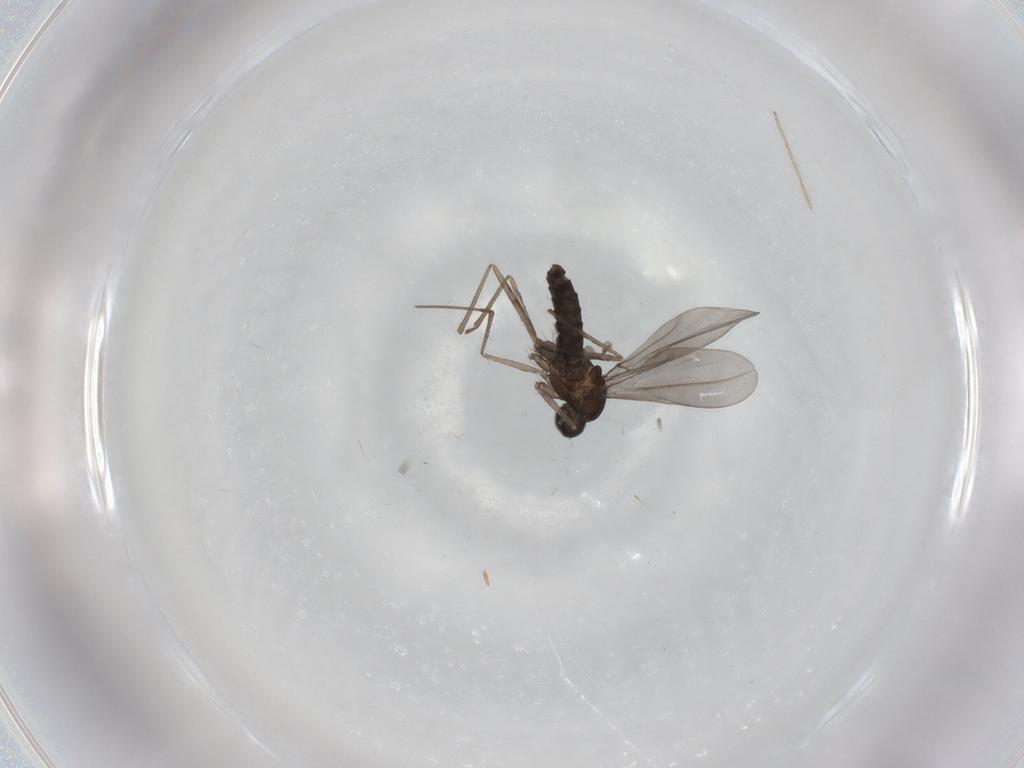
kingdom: Animalia
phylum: Arthropoda
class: Insecta
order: Diptera
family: Cecidomyiidae
